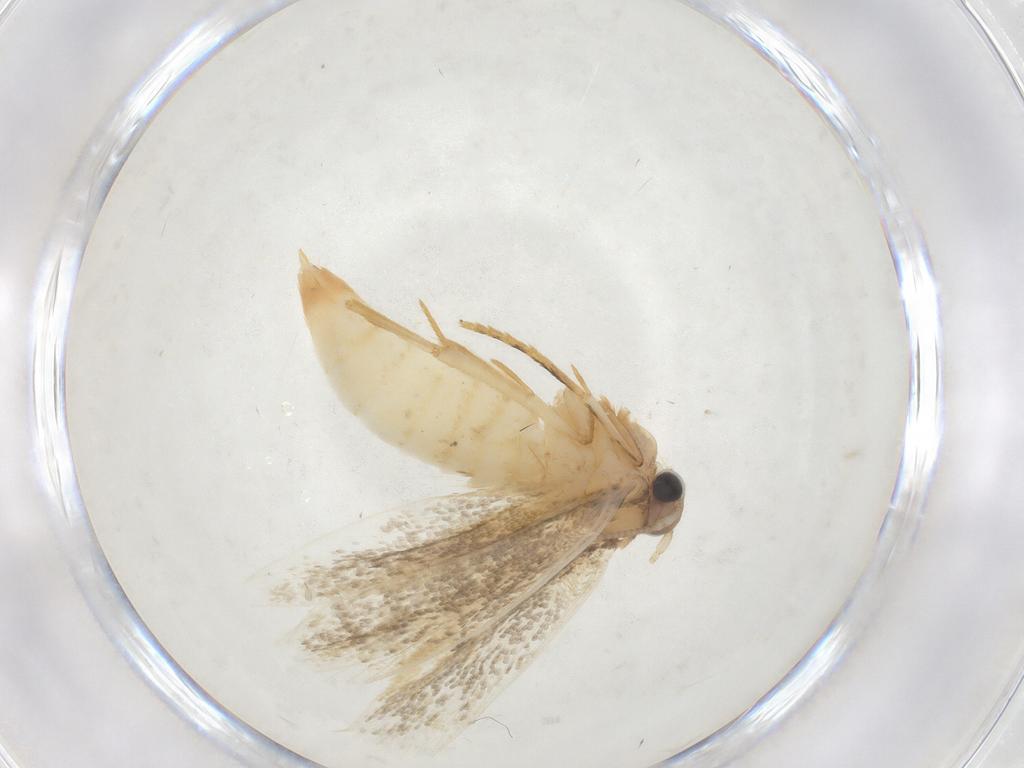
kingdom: Animalia
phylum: Arthropoda
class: Insecta
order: Lepidoptera
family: Tineidae
